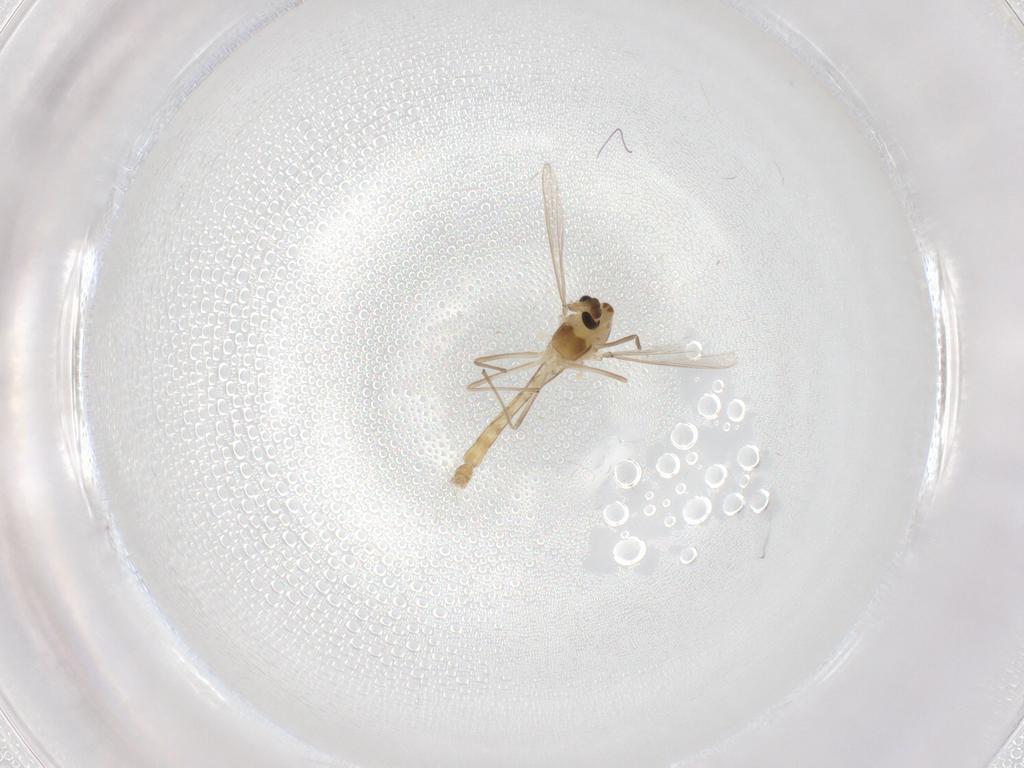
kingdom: Animalia
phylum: Arthropoda
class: Insecta
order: Diptera
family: Chironomidae
